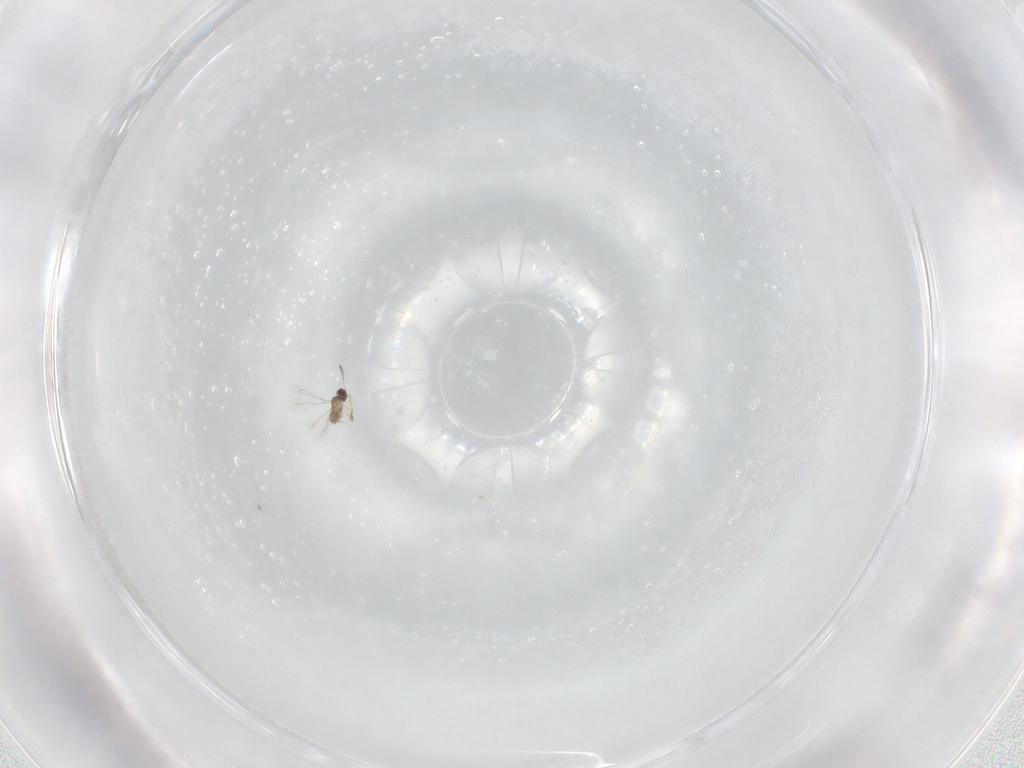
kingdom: Animalia
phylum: Arthropoda
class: Insecta
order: Hymenoptera
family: Mymaridae
